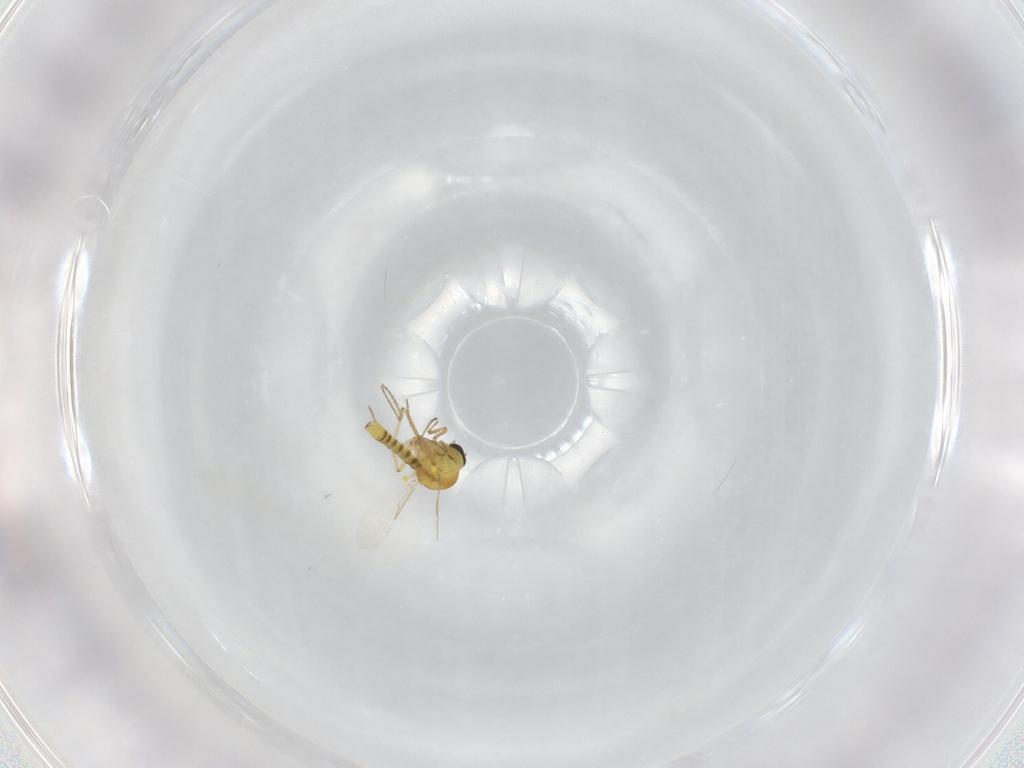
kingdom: Animalia
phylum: Arthropoda
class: Insecta
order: Diptera
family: Ceratopogonidae
